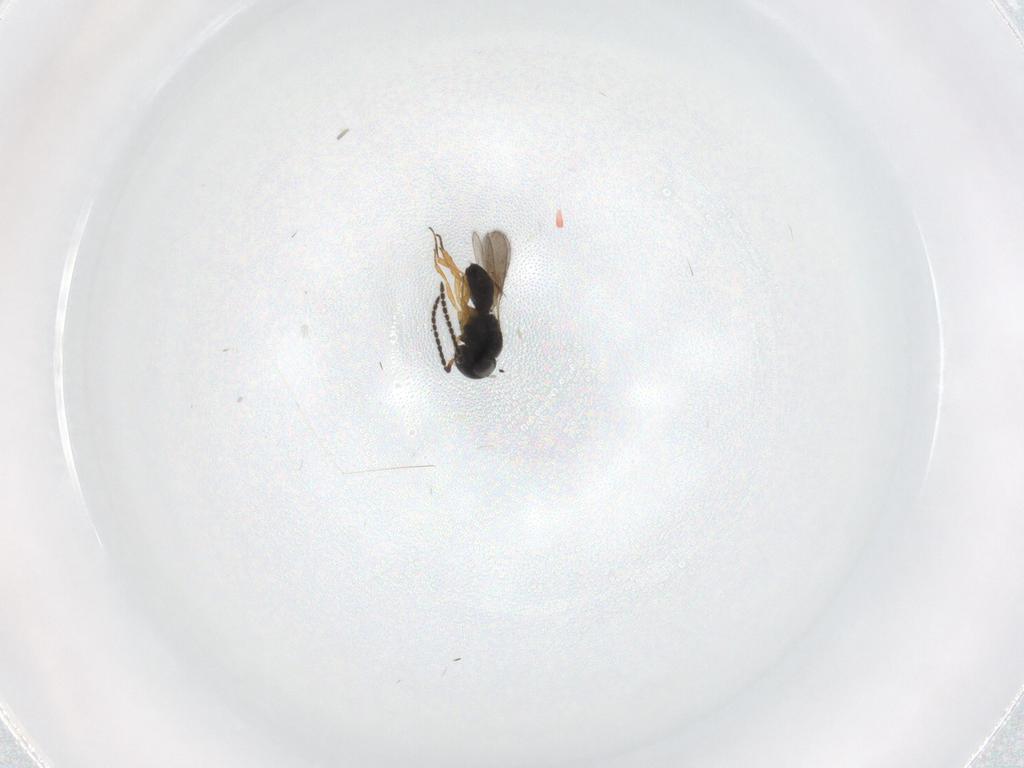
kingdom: Animalia
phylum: Arthropoda
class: Insecta
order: Hymenoptera
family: Scelionidae
